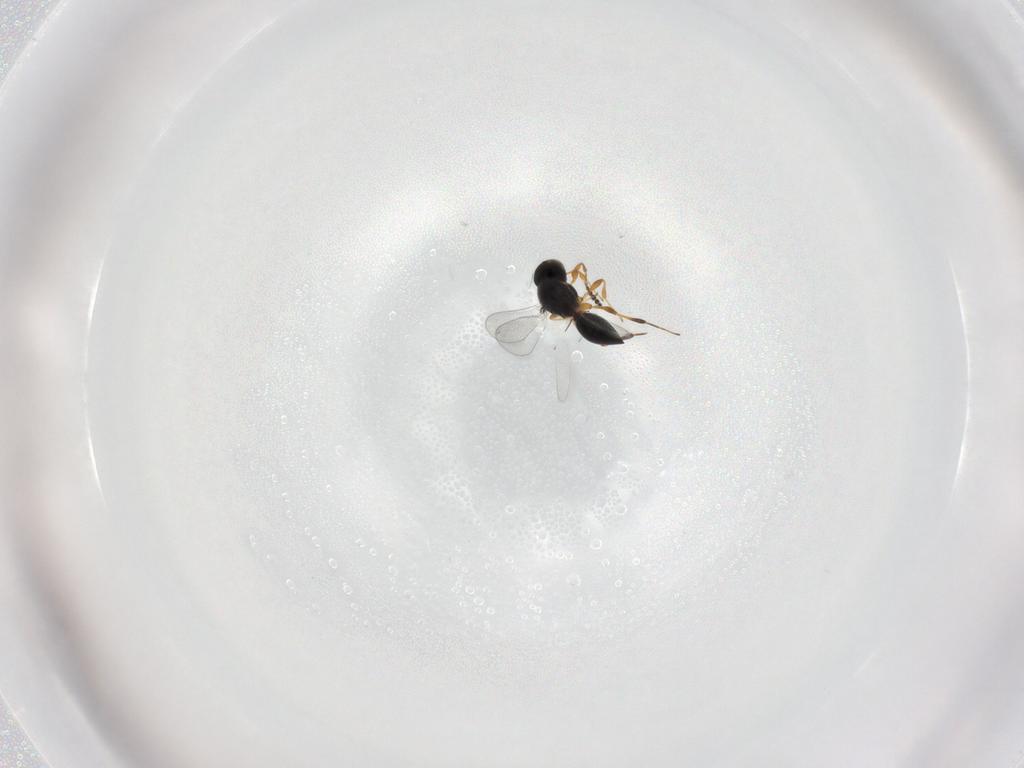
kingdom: Animalia
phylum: Arthropoda
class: Insecta
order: Hymenoptera
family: Platygastridae
